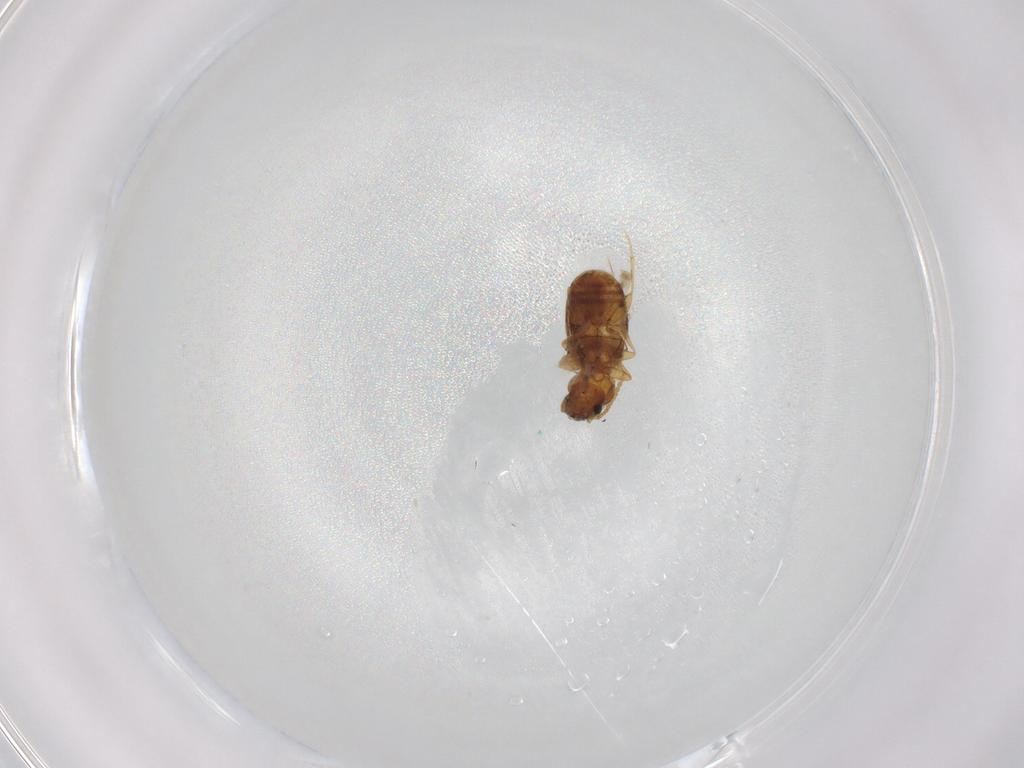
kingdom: Animalia
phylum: Arthropoda
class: Insecta
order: Coleoptera
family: Carabidae
